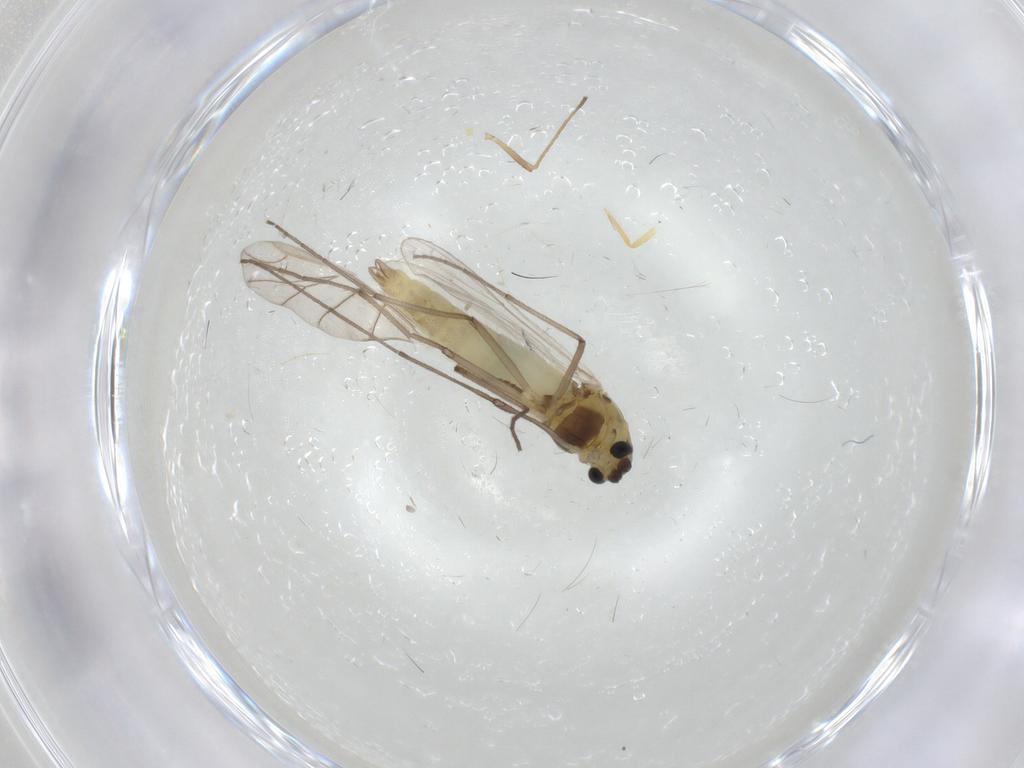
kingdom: Animalia
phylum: Arthropoda
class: Insecta
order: Diptera
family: Chironomidae
